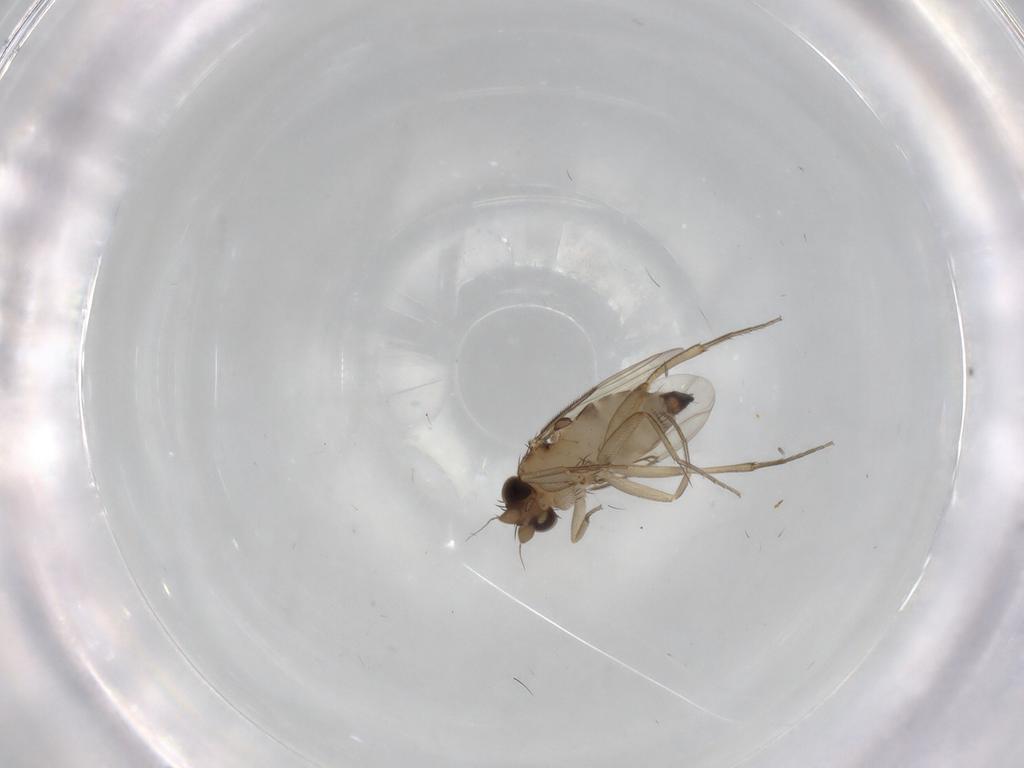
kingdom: Animalia
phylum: Arthropoda
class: Insecta
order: Diptera
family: Phoridae
